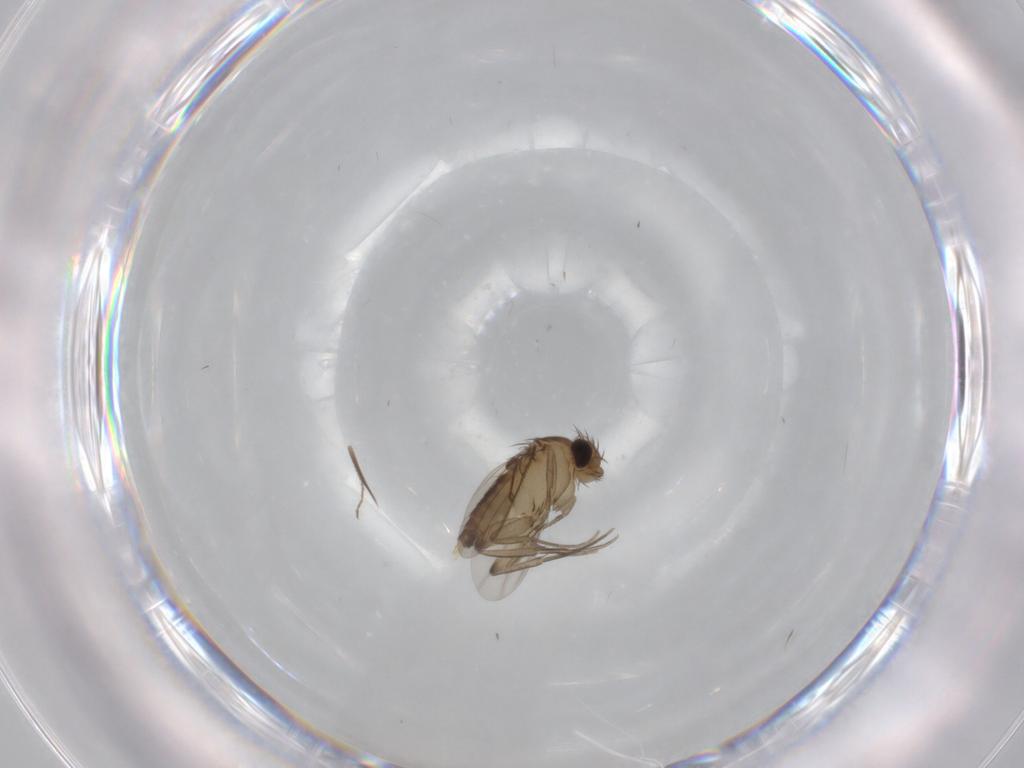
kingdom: Animalia
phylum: Arthropoda
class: Insecta
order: Diptera
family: Ceratopogonidae
